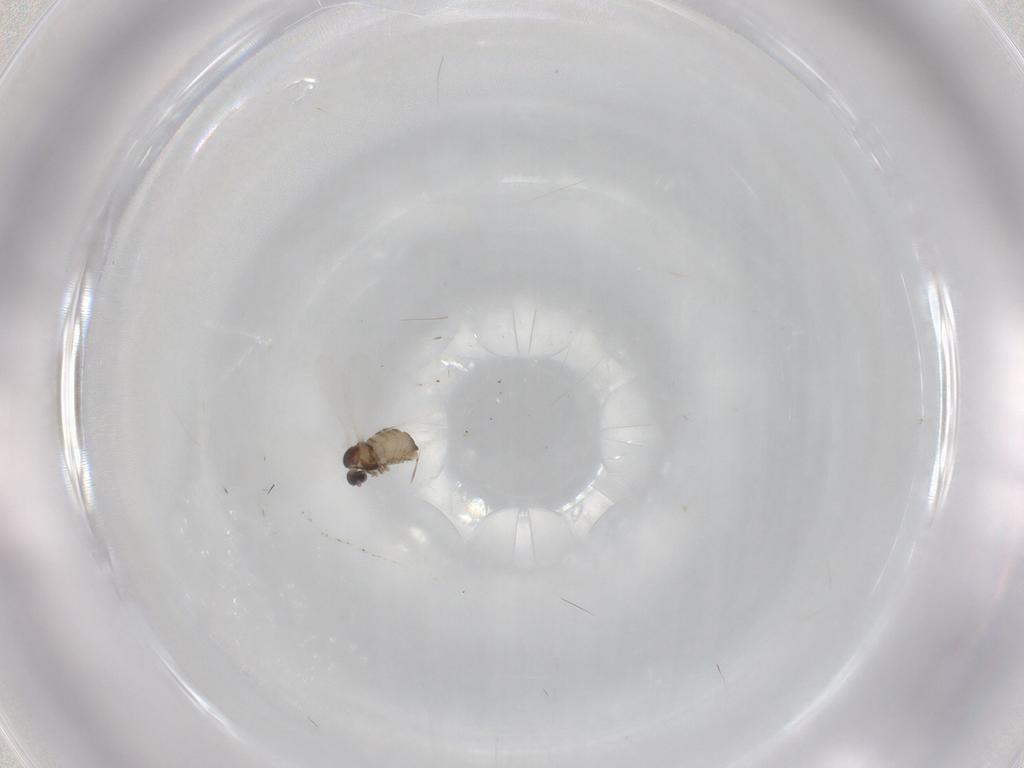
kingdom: Animalia
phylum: Arthropoda
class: Insecta
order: Diptera
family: Cecidomyiidae
